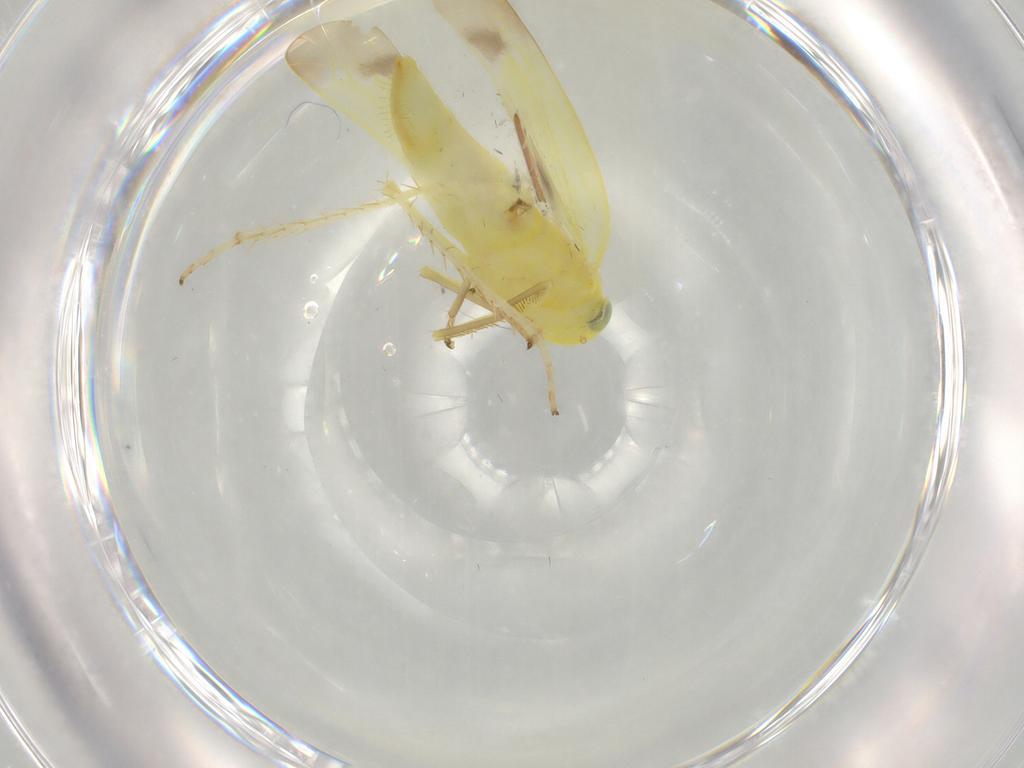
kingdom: Animalia
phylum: Arthropoda
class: Insecta
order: Hemiptera
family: Cicadellidae
